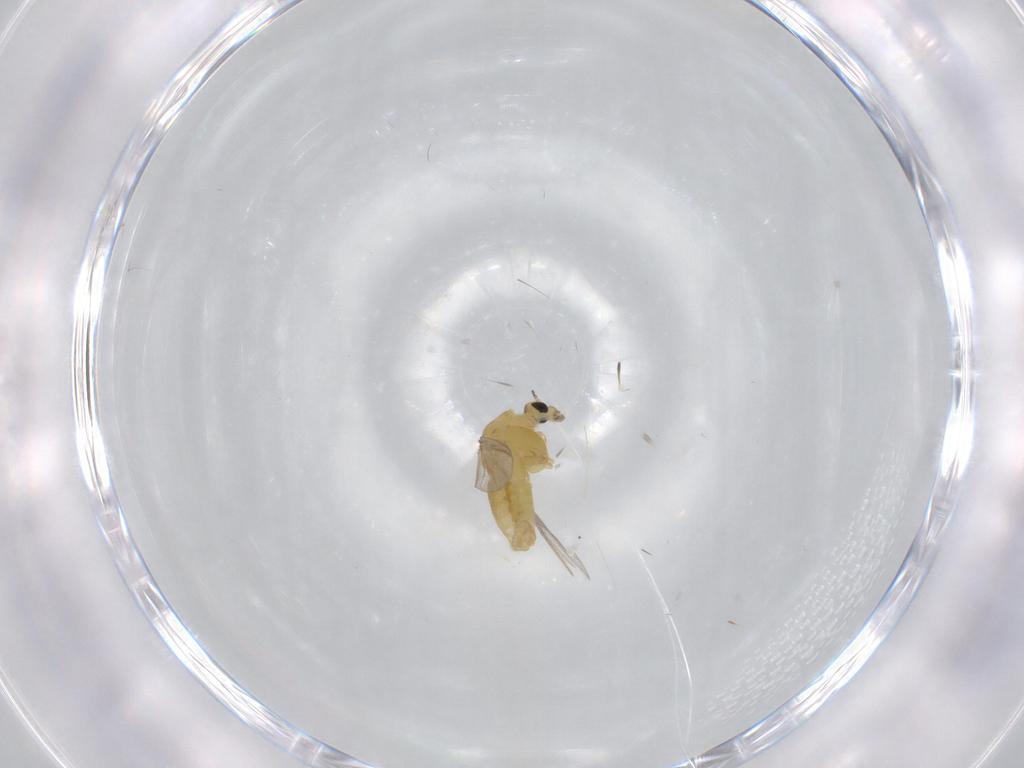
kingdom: Animalia
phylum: Arthropoda
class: Insecta
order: Diptera
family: Chironomidae
